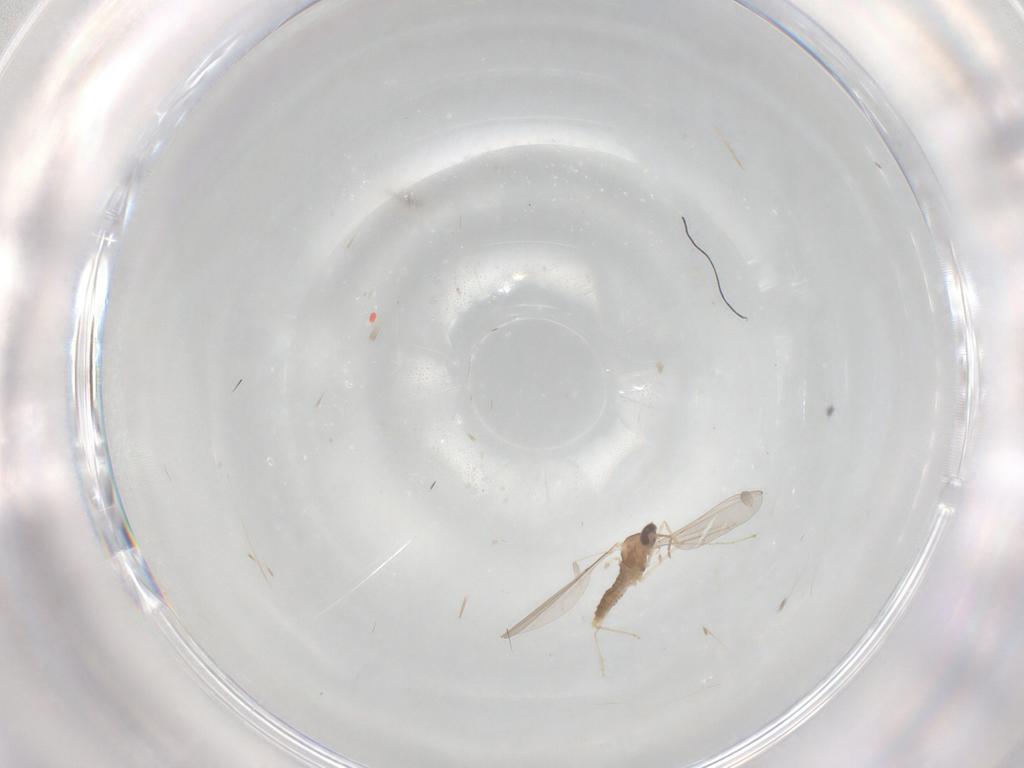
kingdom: Animalia
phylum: Arthropoda
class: Insecta
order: Diptera
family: Cecidomyiidae
